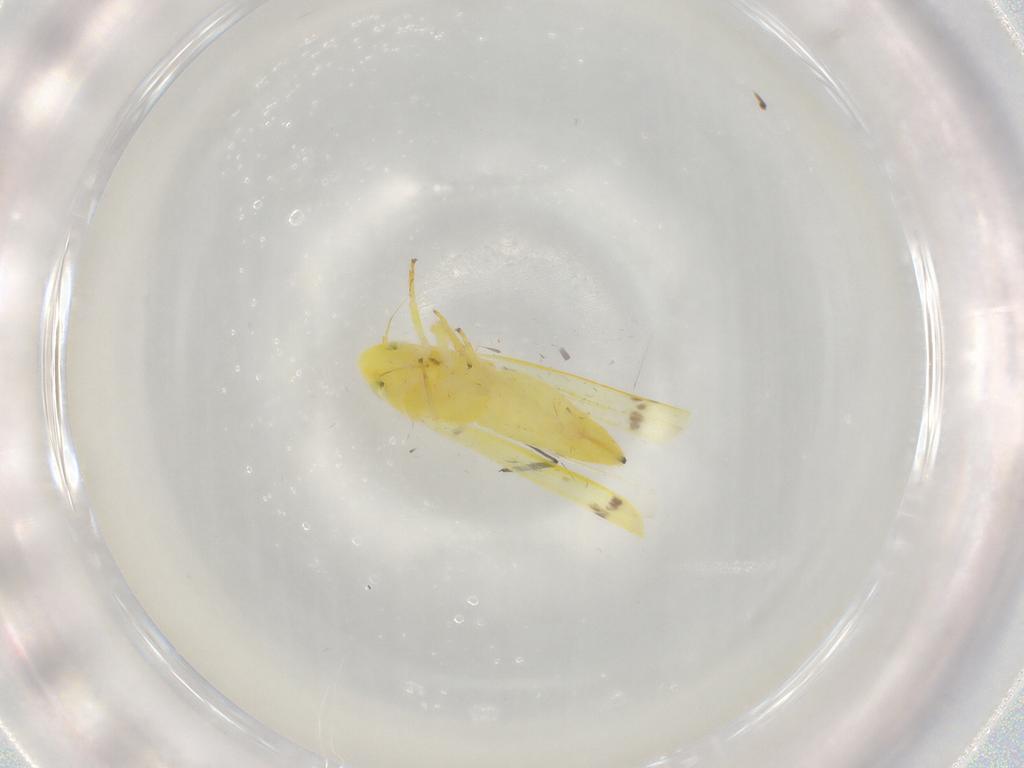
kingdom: Animalia
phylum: Arthropoda
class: Insecta
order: Hemiptera
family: Cicadellidae
